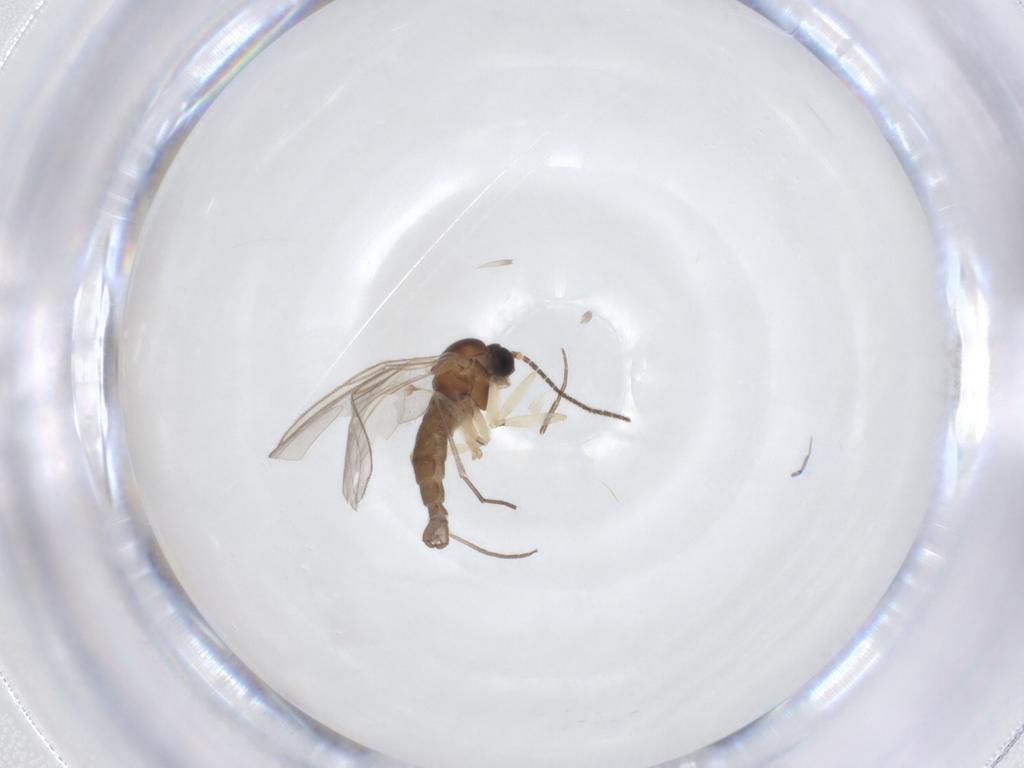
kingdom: Animalia
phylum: Arthropoda
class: Insecta
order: Diptera
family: Sciaridae
